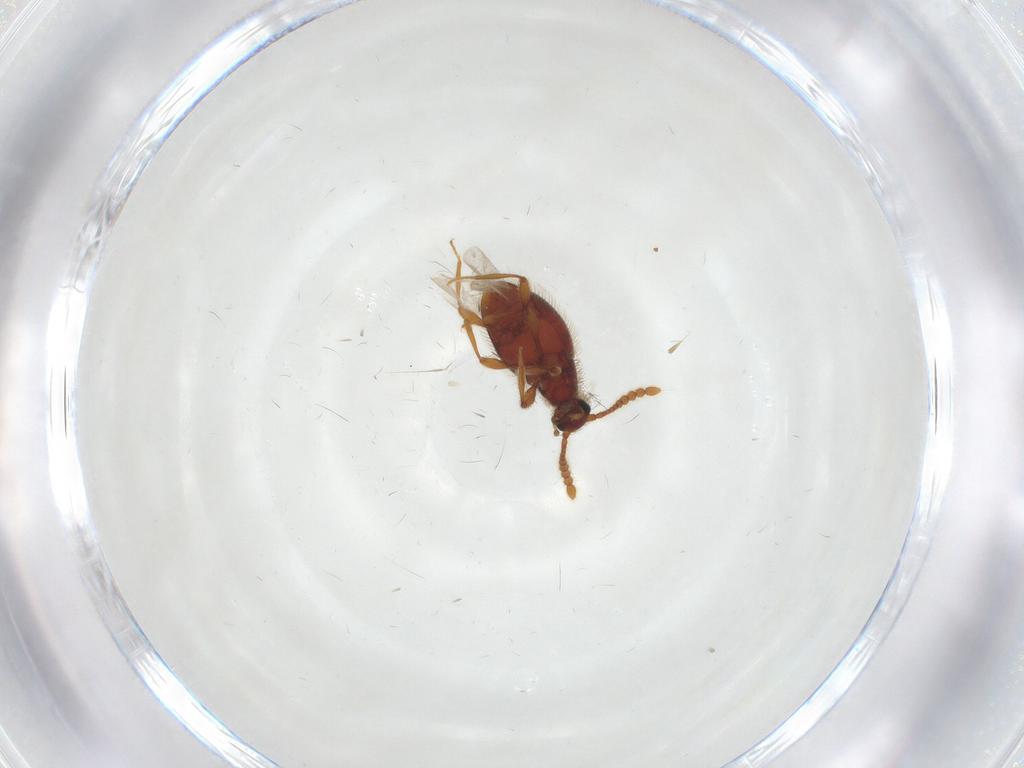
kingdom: Animalia
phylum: Arthropoda
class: Insecta
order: Coleoptera
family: Staphylinidae
